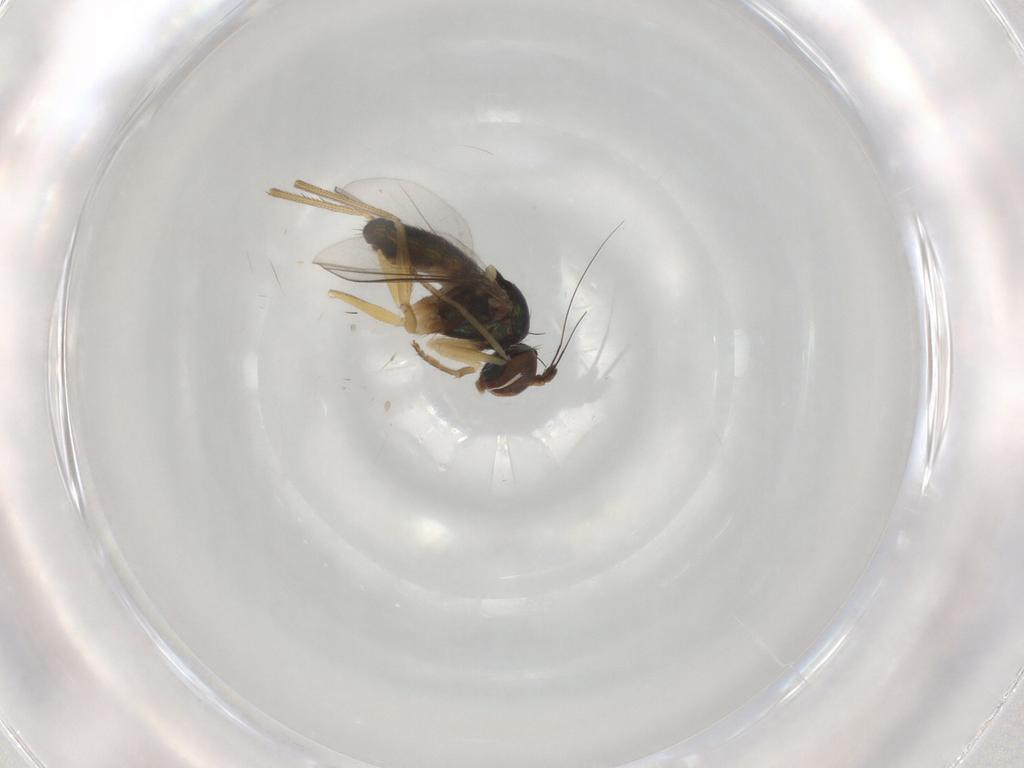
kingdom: Animalia
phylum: Arthropoda
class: Insecta
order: Diptera
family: Dolichopodidae
